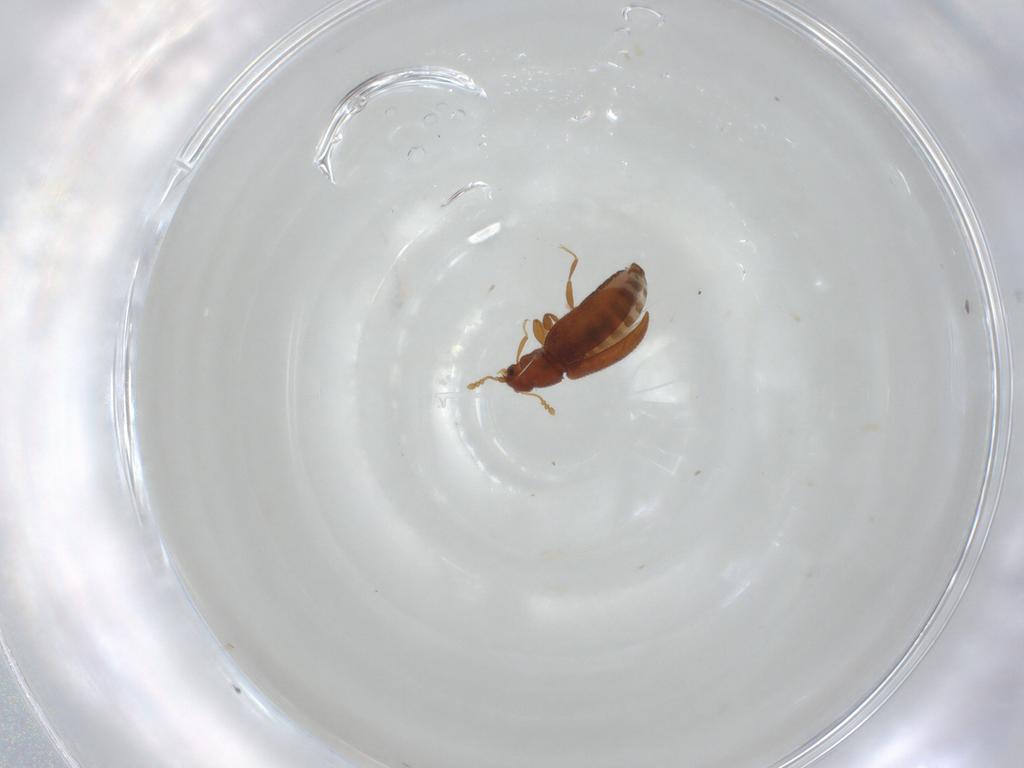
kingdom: Animalia
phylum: Arthropoda
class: Insecta
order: Coleoptera
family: Latridiidae
